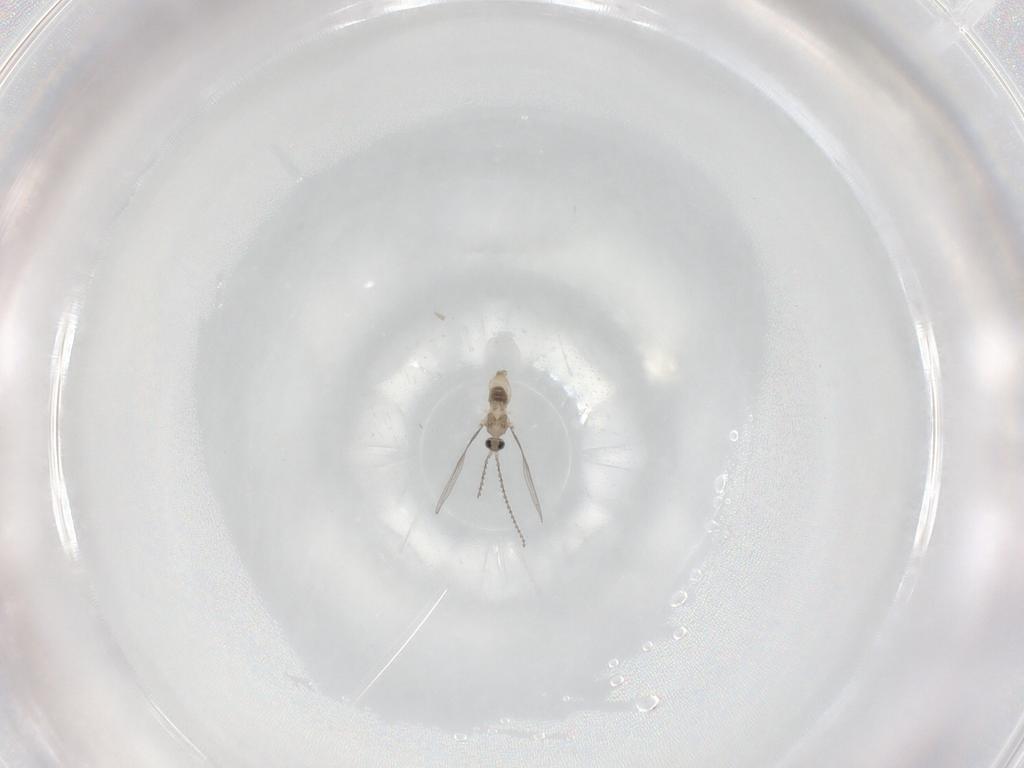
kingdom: Animalia
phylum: Arthropoda
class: Insecta
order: Diptera
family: Cecidomyiidae
